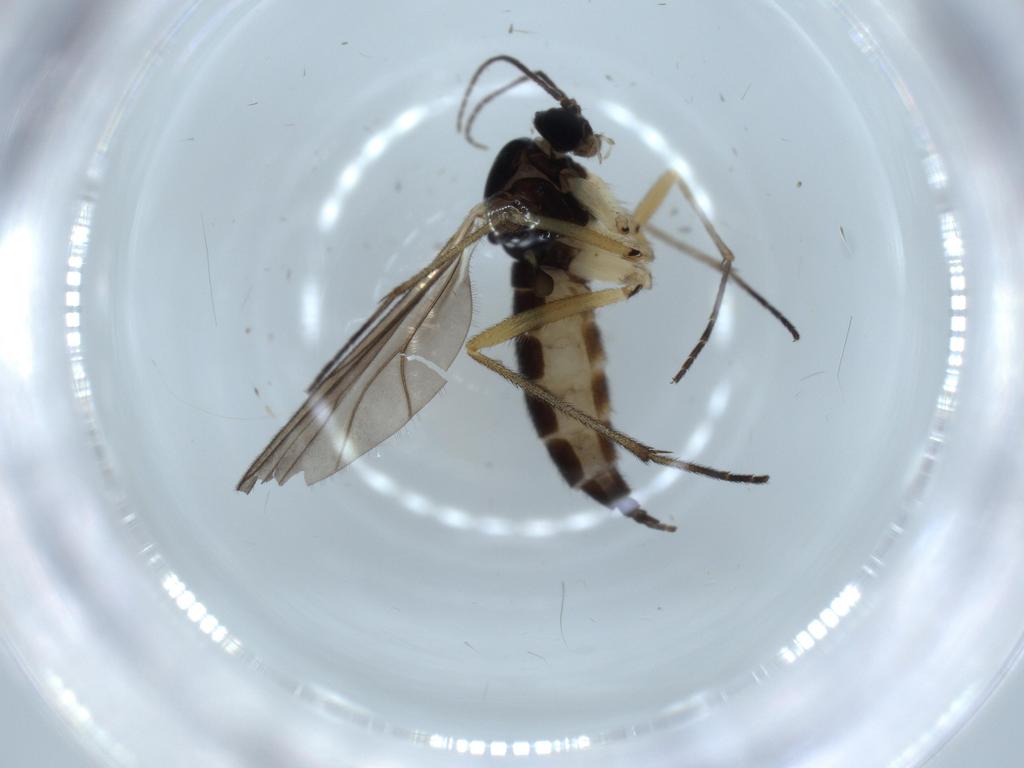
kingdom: Animalia
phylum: Arthropoda
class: Insecta
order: Diptera
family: Sciaridae
